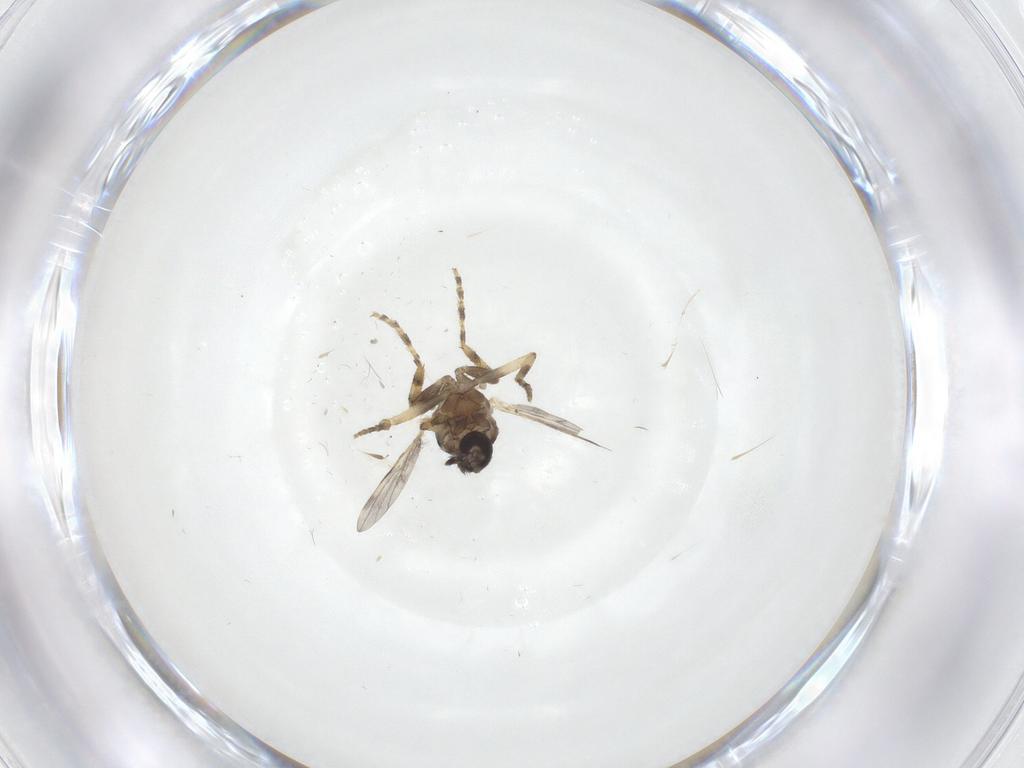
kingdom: Animalia
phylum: Arthropoda
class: Insecta
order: Diptera
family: Ceratopogonidae
